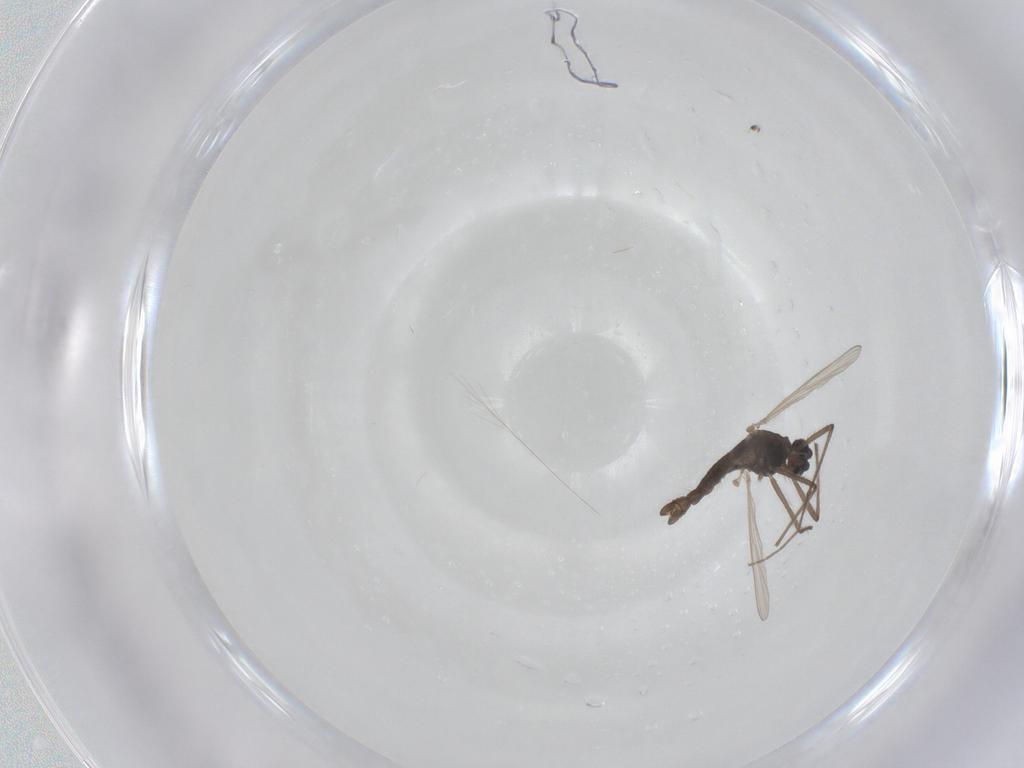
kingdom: Animalia
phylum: Arthropoda
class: Insecta
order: Diptera
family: Chironomidae
